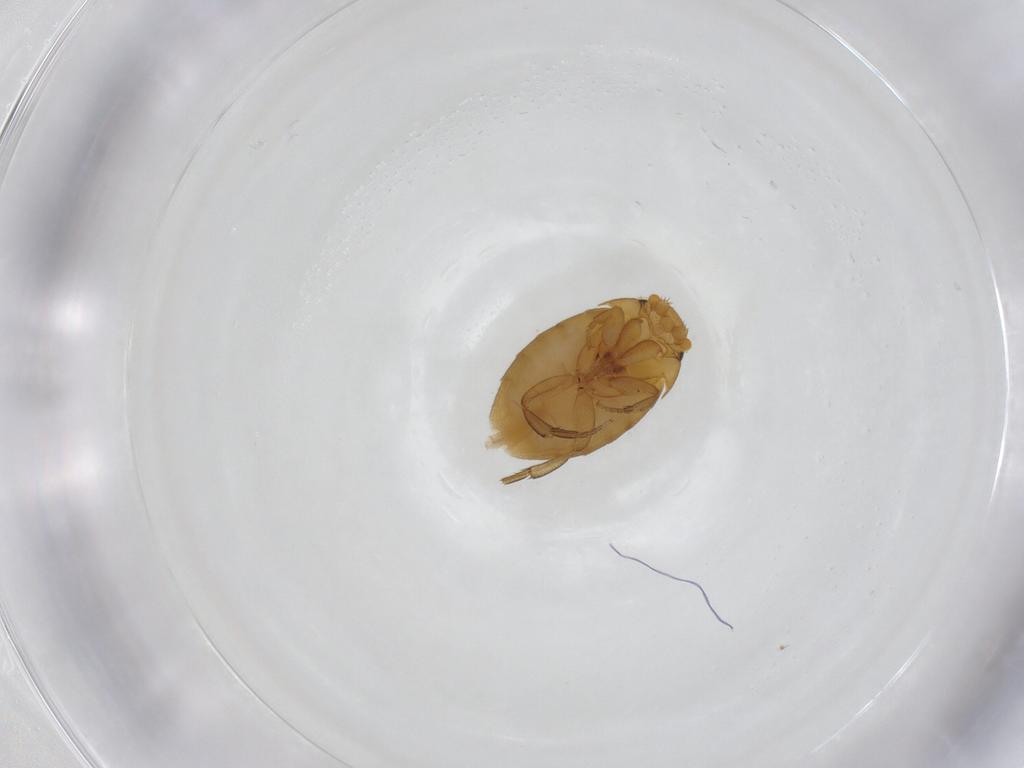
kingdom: Animalia
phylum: Arthropoda
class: Insecta
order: Diptera
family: Phoridae
